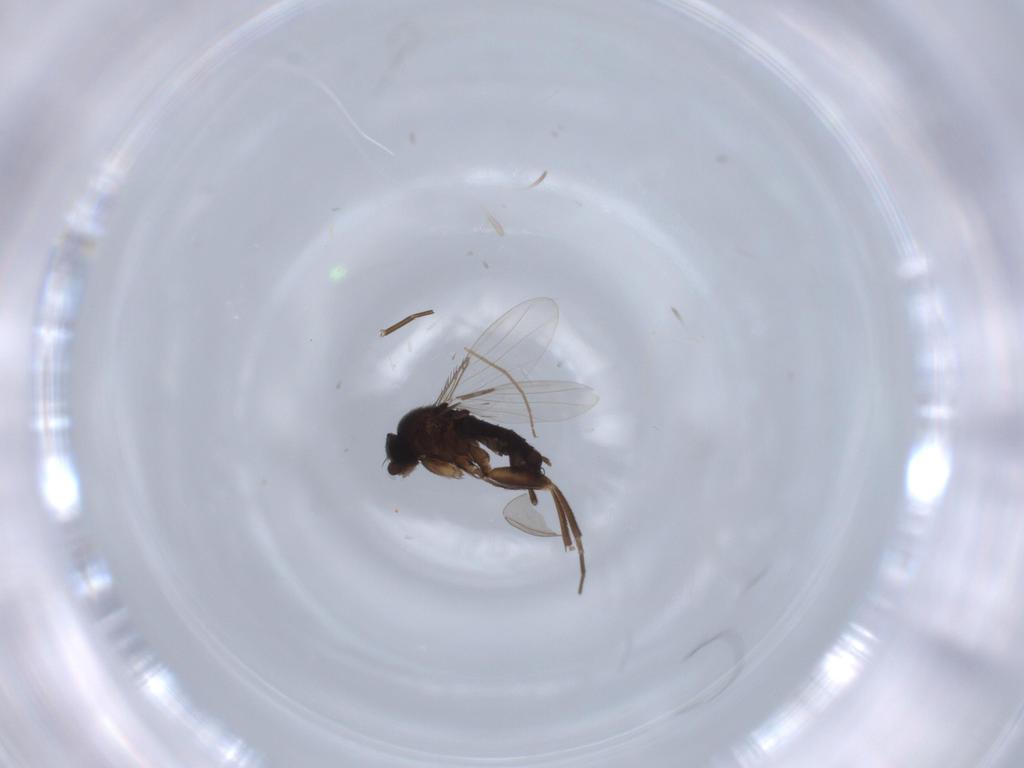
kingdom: Animalia
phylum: Arthropoda
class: Insecta
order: Diptera
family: Phoridae
